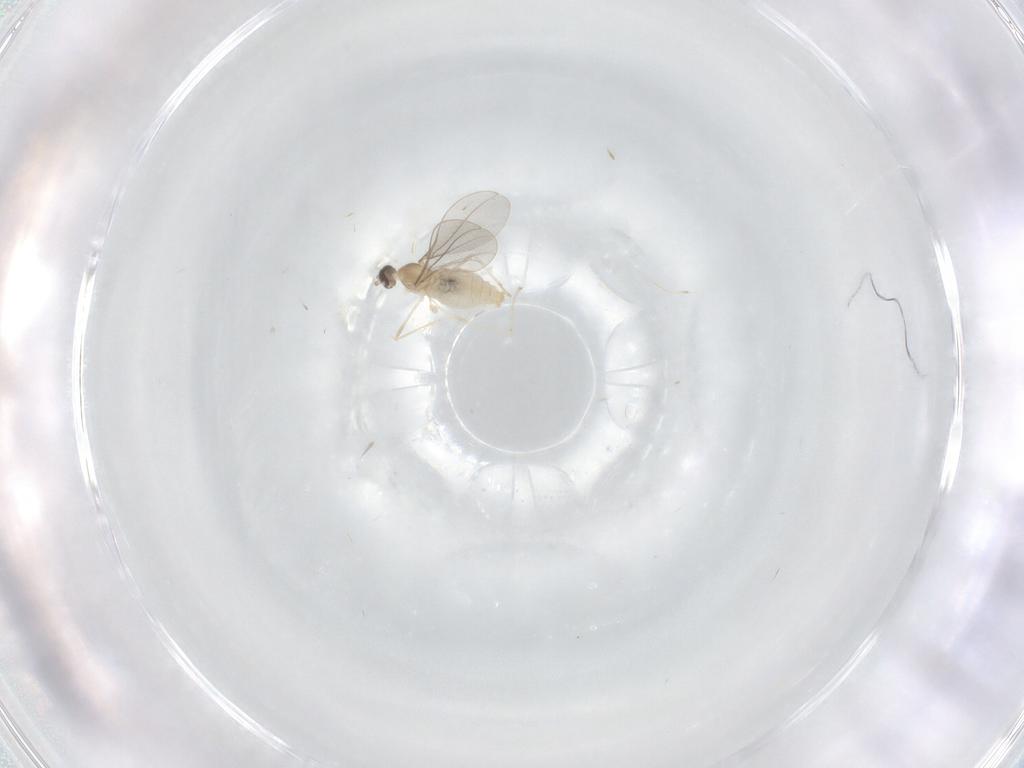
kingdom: Animalia
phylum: Arthropoda
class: Insecta
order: Diptera
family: Cecidomyiidae
